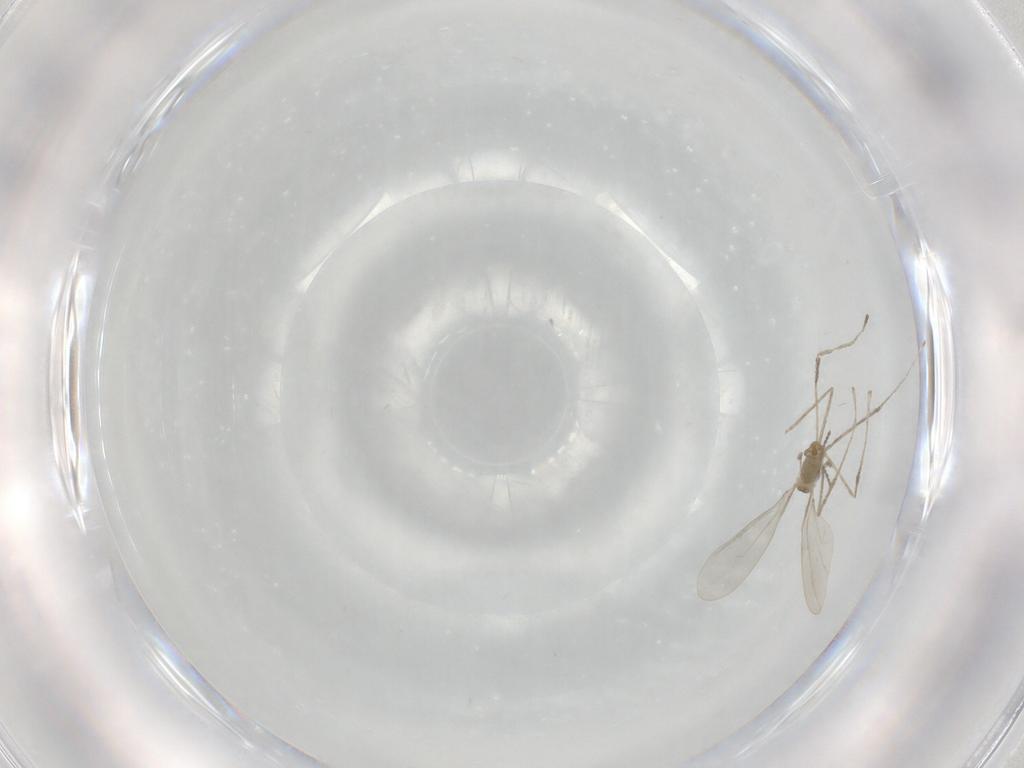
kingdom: Animalia
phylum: Arthropoda
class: Insecta
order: Diptera
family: Cecidomyiidae
